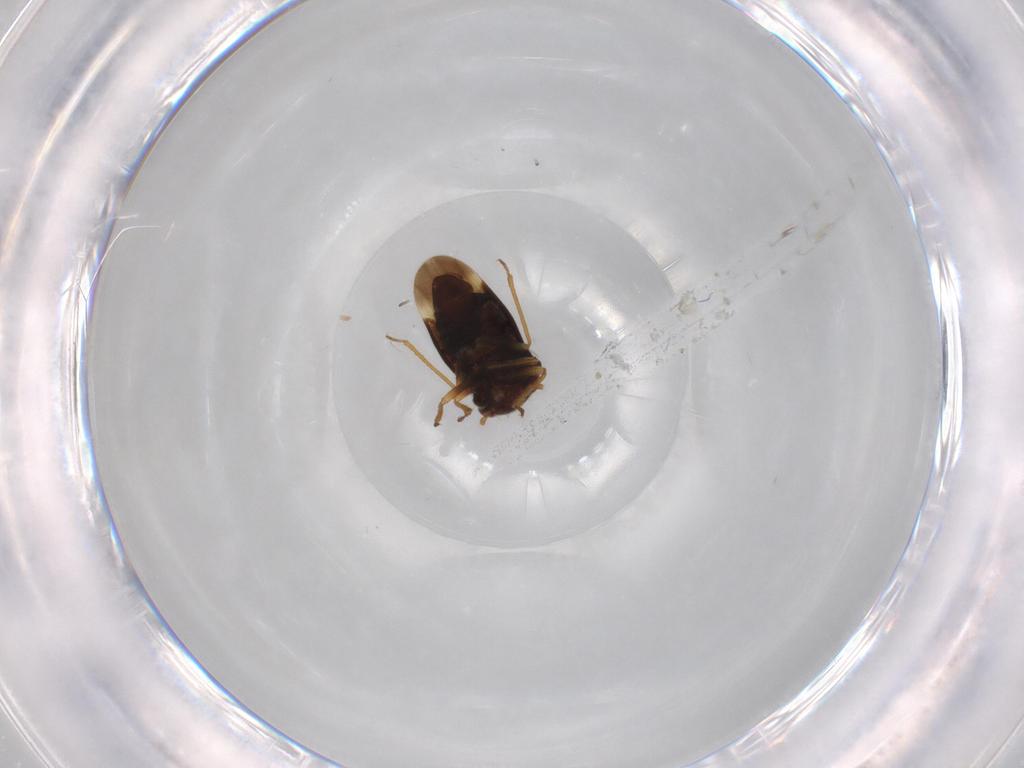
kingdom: Animalia
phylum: Arthropoda
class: Insecta
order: Hemiptera
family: Schizopteridae
